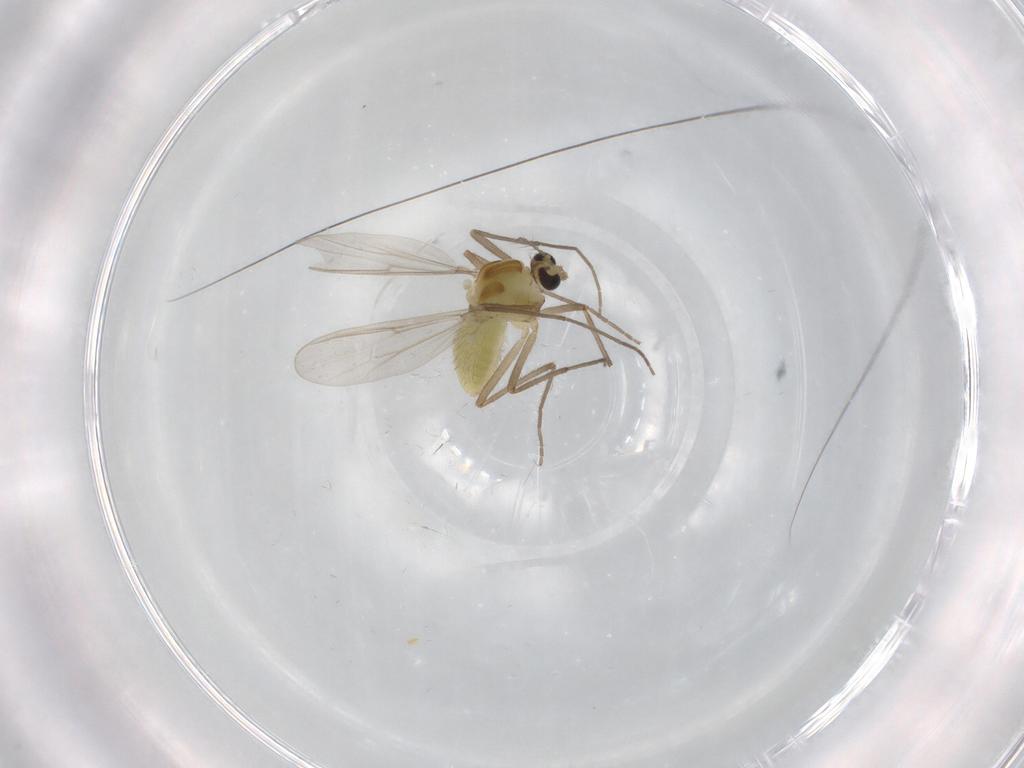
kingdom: Animalia
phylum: Arthropoda
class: Insecta
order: Diptera
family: Chironomidae
